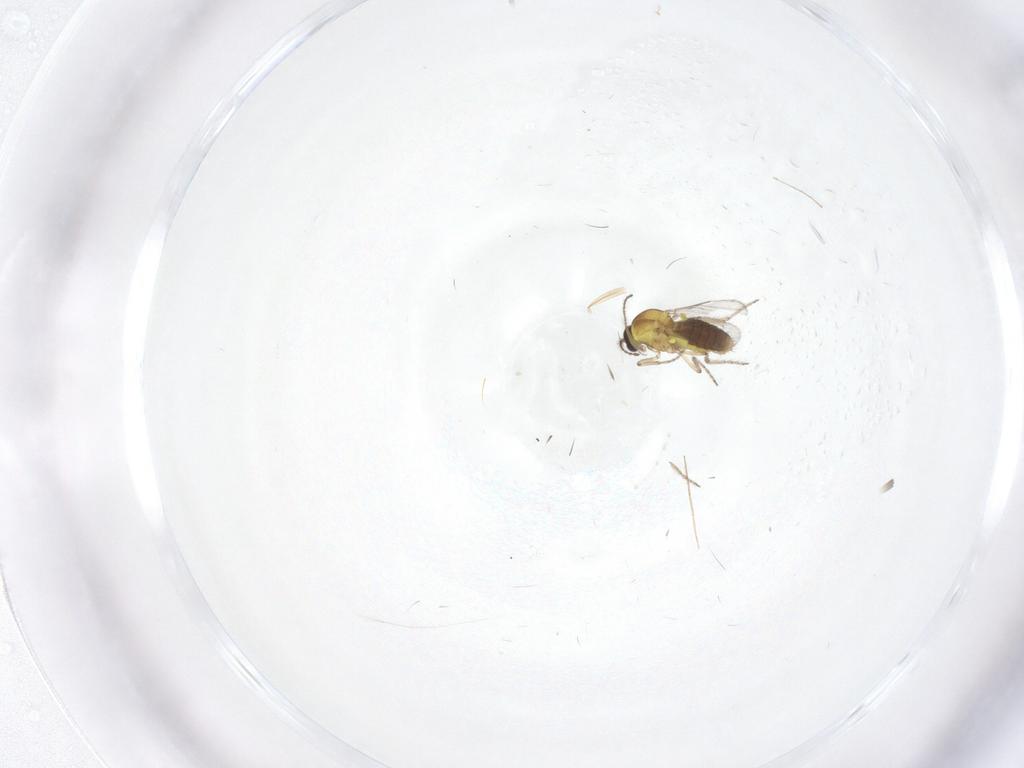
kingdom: Animalia
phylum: Arthropoda
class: Insecta
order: Diptera
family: Chironomidae
